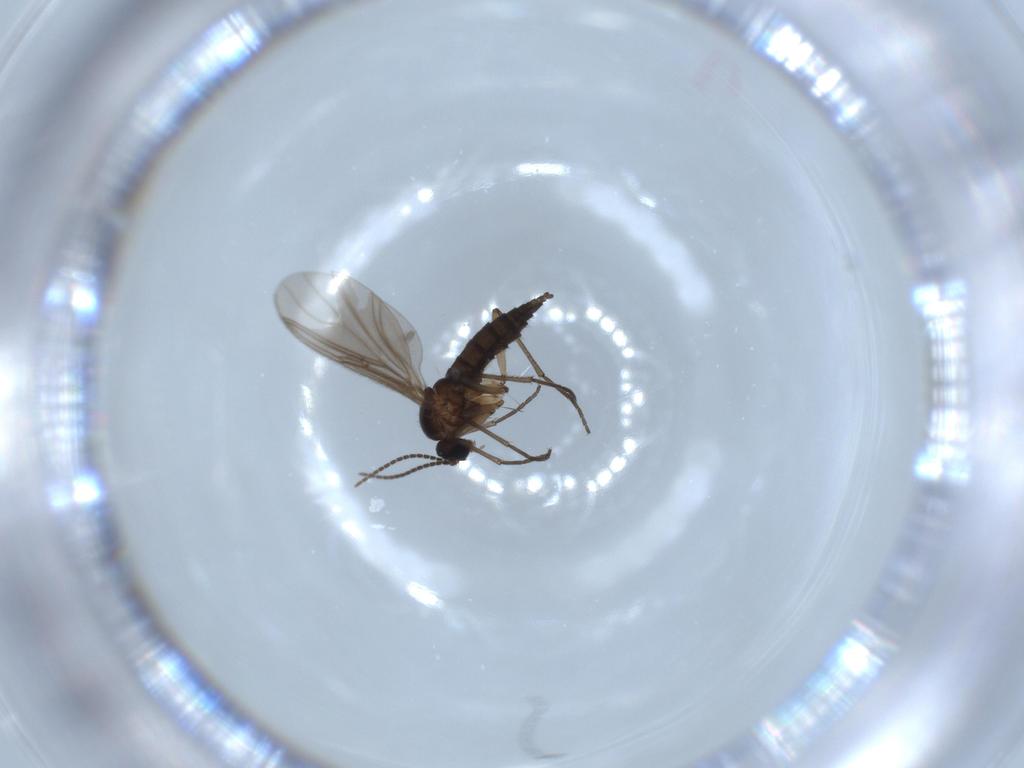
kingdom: Animalia
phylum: Arthropoda
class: Insecta
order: Diptera
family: Sciaridae
